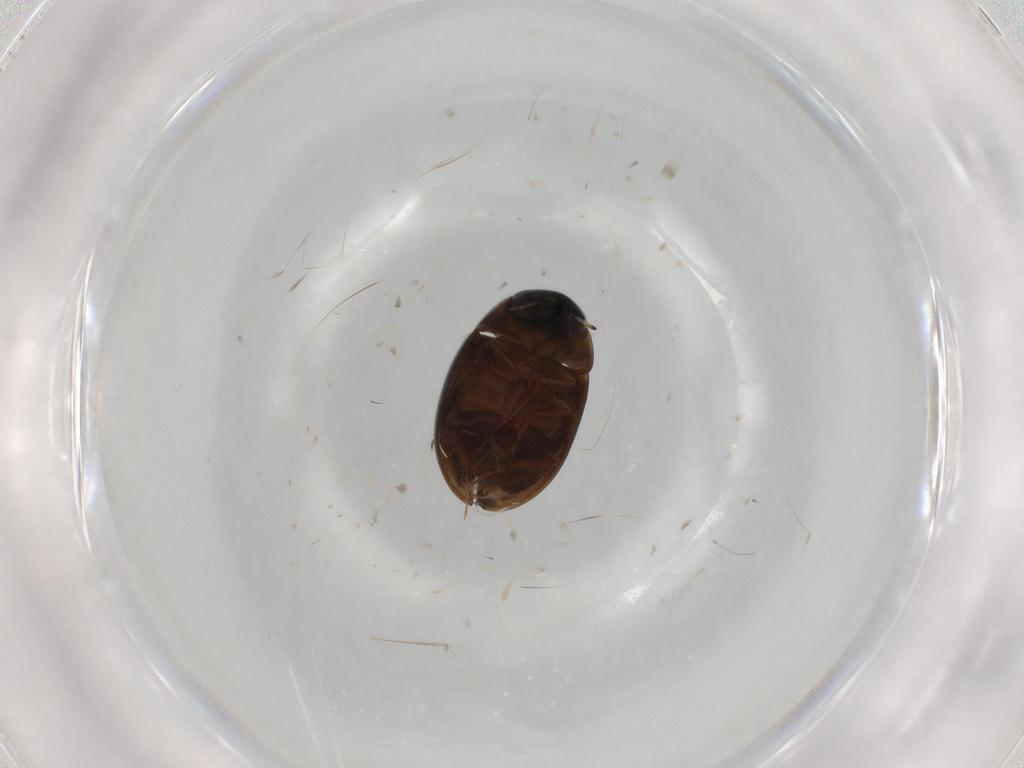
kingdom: Animalia
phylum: Arthropoda
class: Insecta
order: Coleoptera
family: Hydrophilidae
